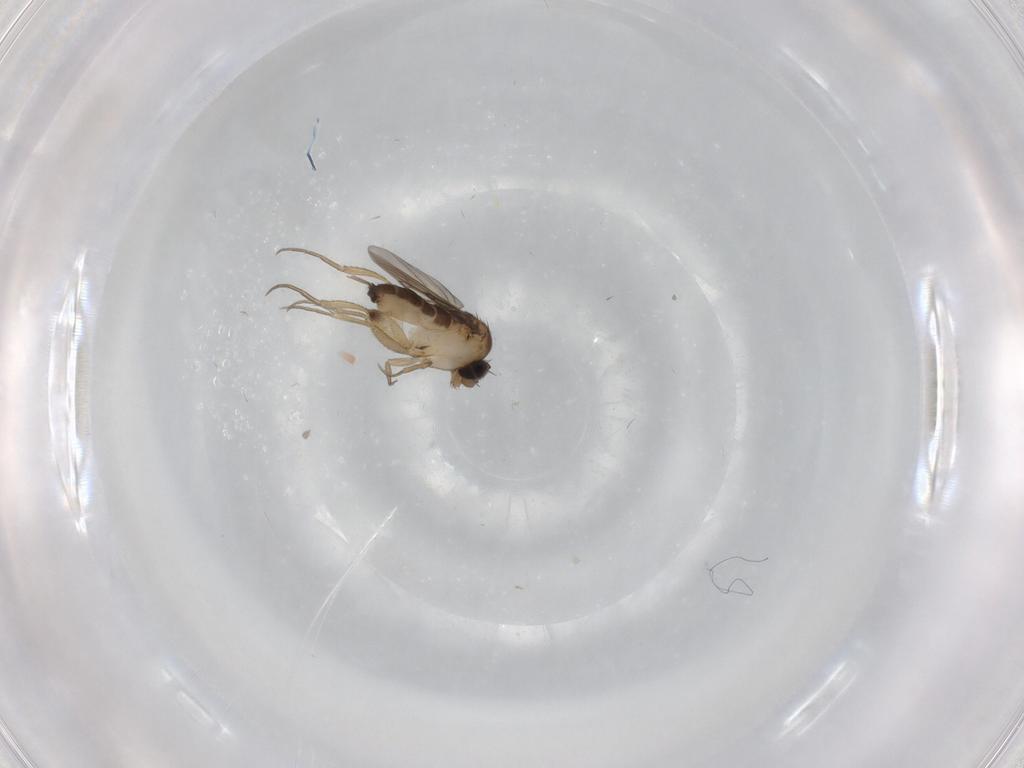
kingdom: Animalia
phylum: Arthropoda
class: Insecta
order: Diptera
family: Phoridae
